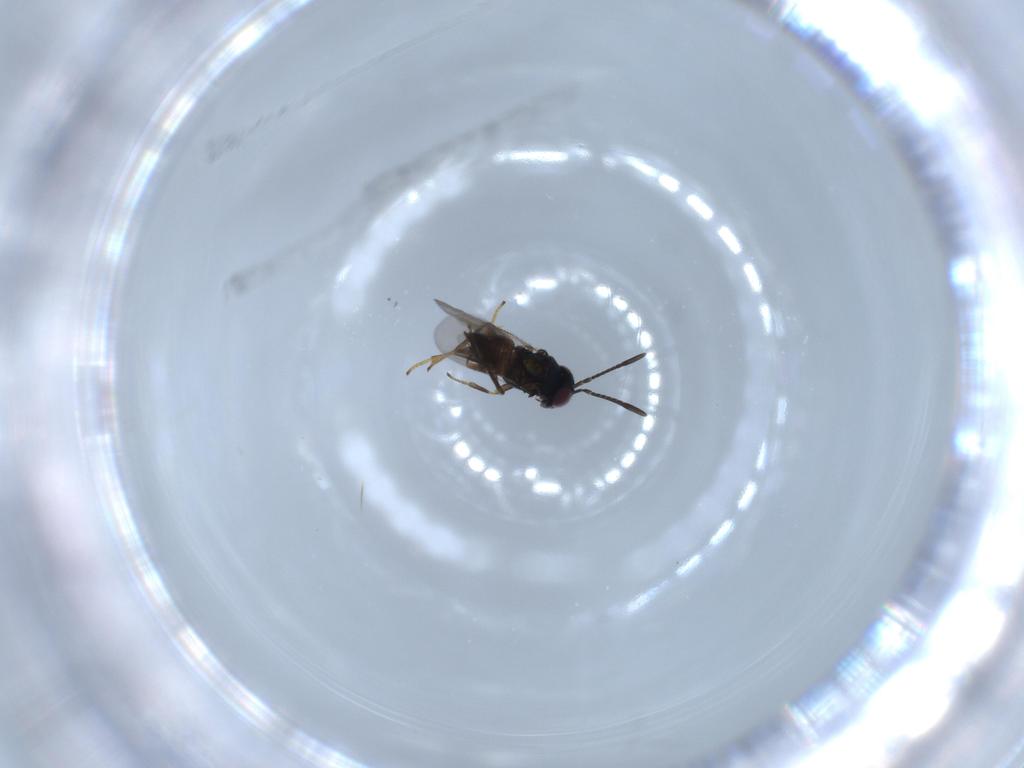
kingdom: Animalia
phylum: Arthropoda
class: Insecta
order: Hymenoptera
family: Encyrtidae
